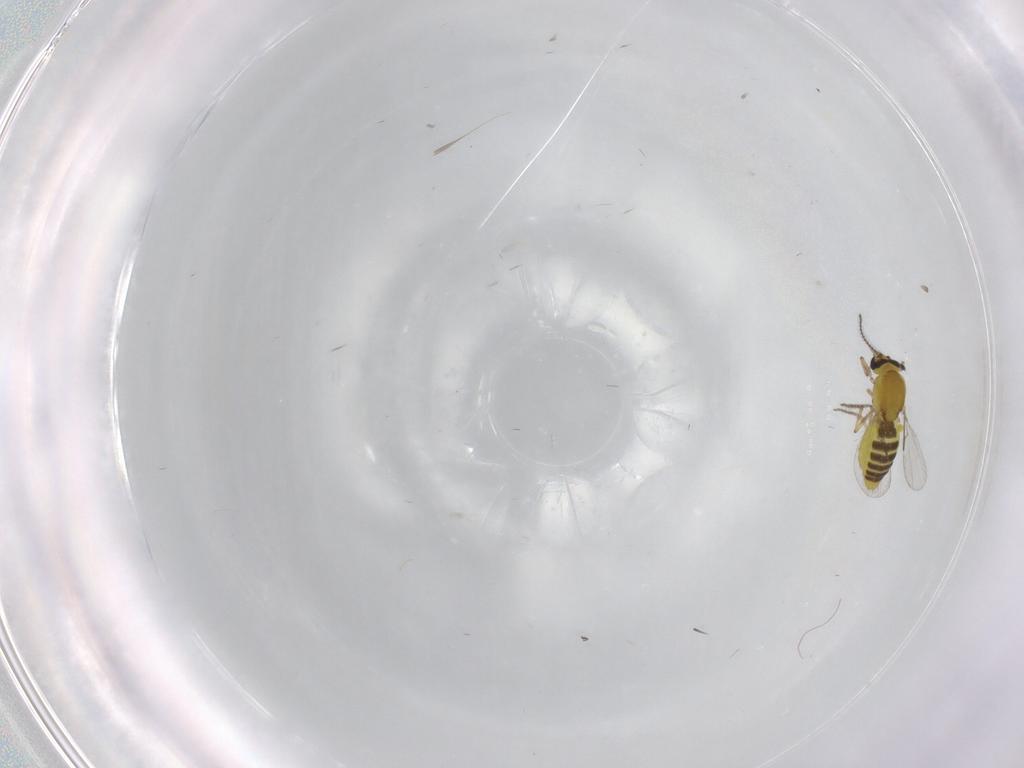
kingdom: Animalia
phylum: Arthropoda
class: Insecta
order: Diptera
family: Drosophilidae
